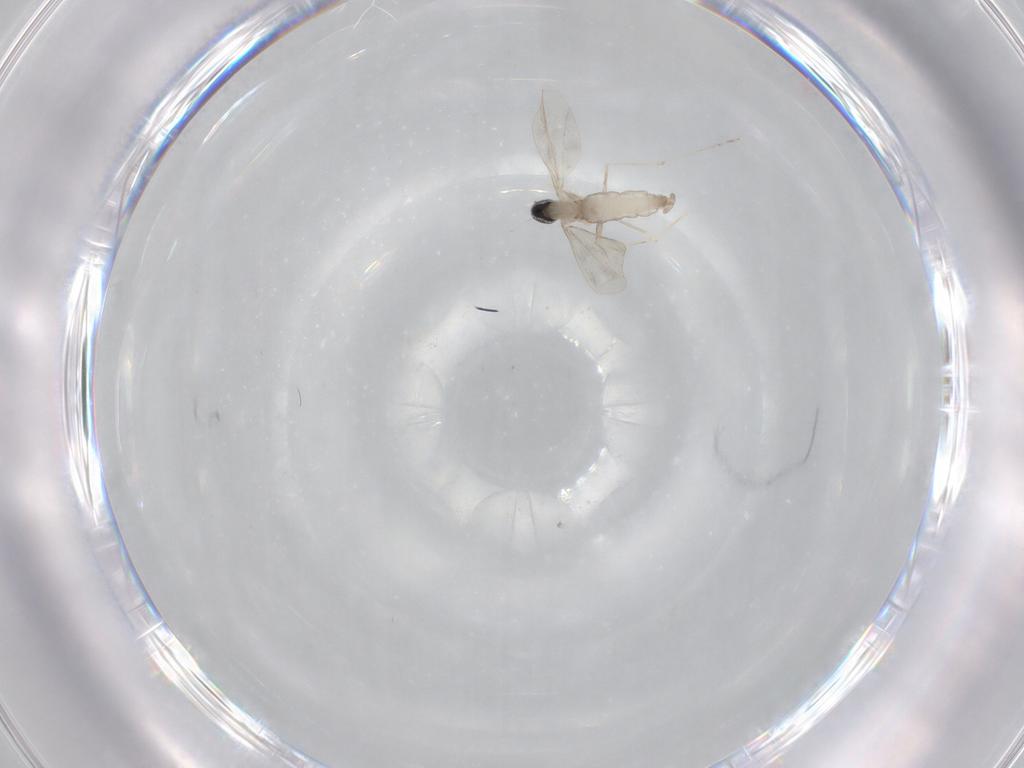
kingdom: Animalia
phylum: Arthropoda
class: Insecta
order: Diptera
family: Cecidomyiidae
